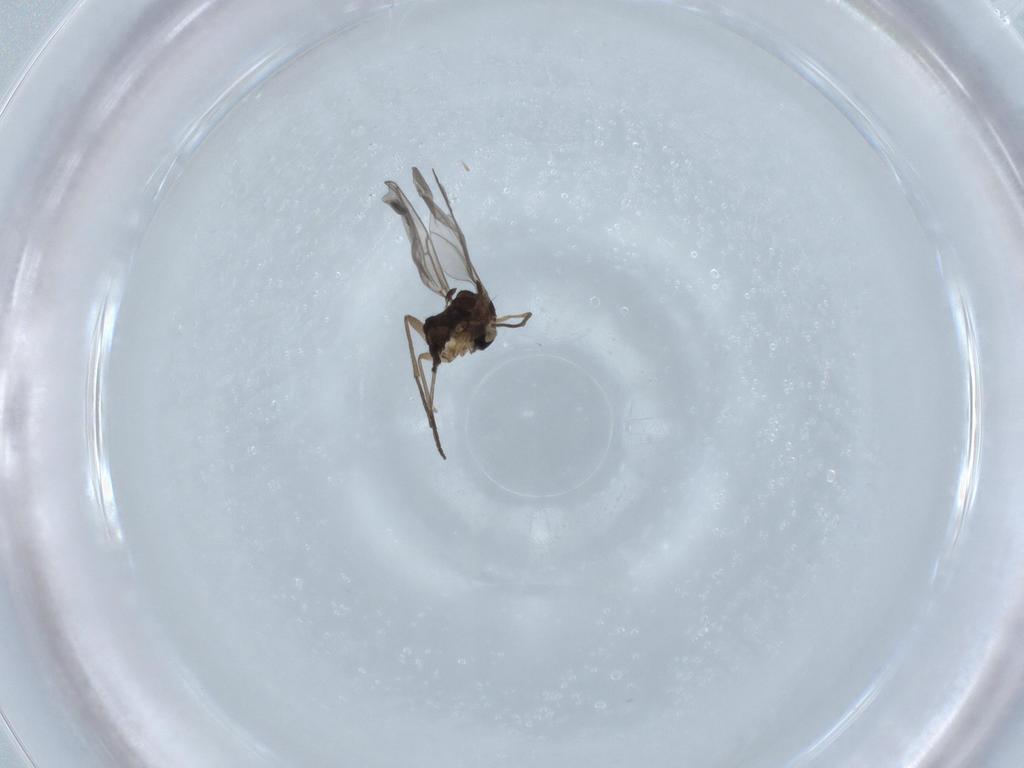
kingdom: Animalia
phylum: Arthropoda
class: Insecta
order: Diptera
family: Sciaridae
